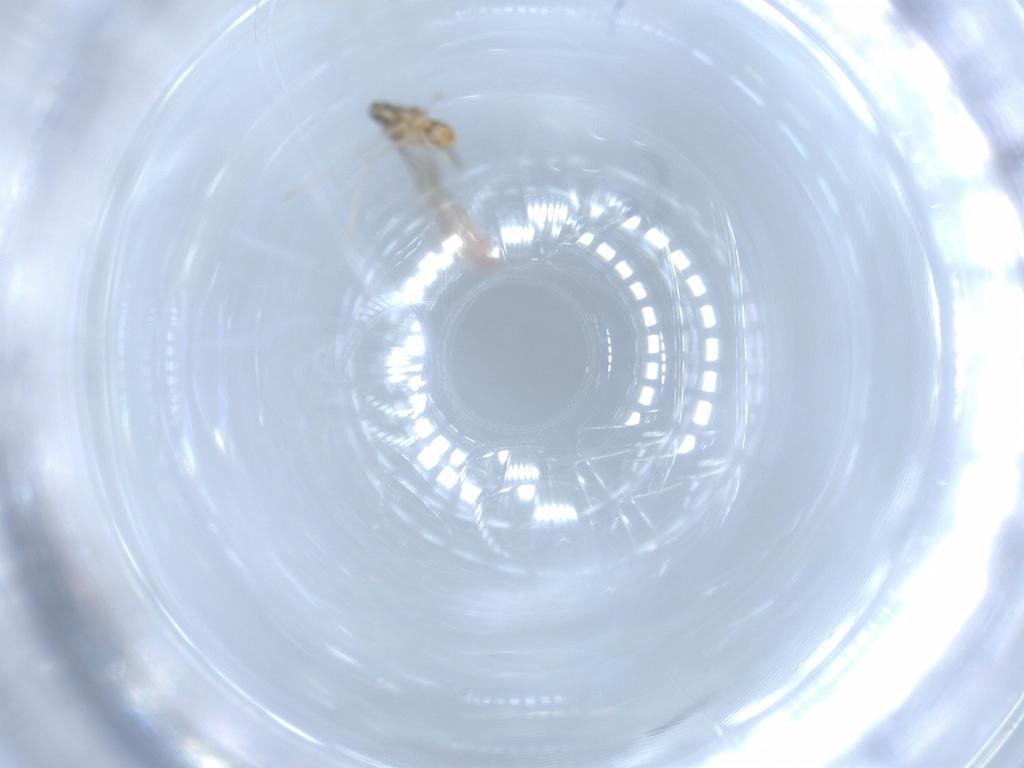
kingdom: Animalia
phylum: Arthropoda
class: Insecta
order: Diptera
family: Cecidomyiidae
